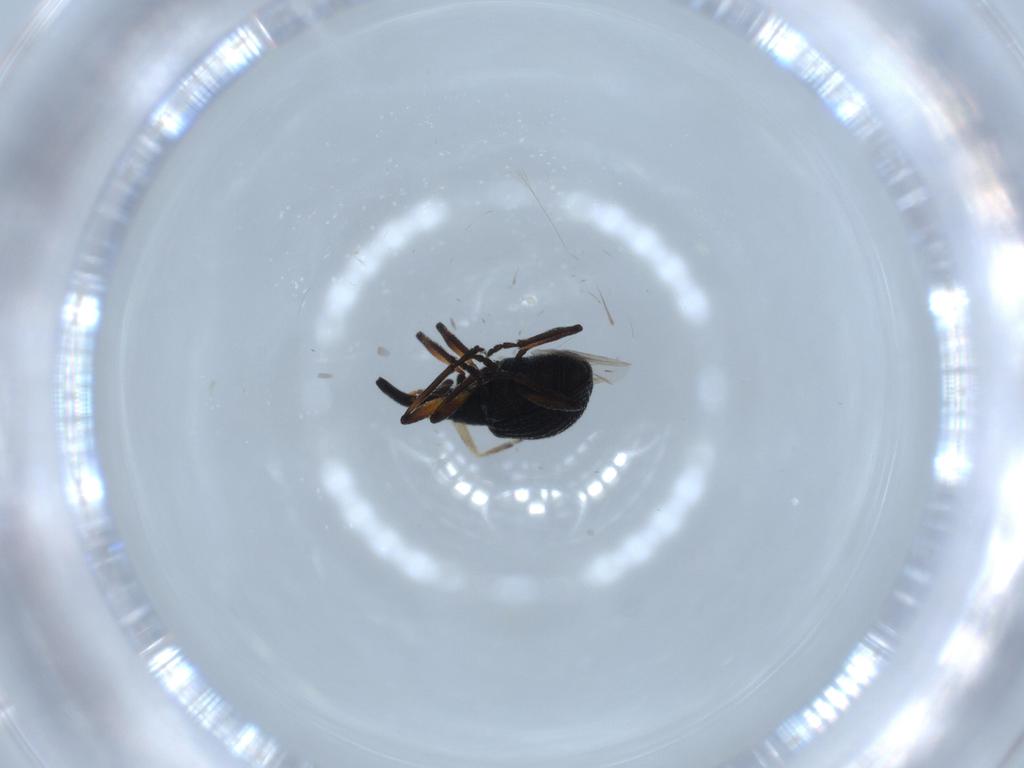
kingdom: Animalia
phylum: Arthropoda
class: Insecta
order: Coleoptera
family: Brentidae
